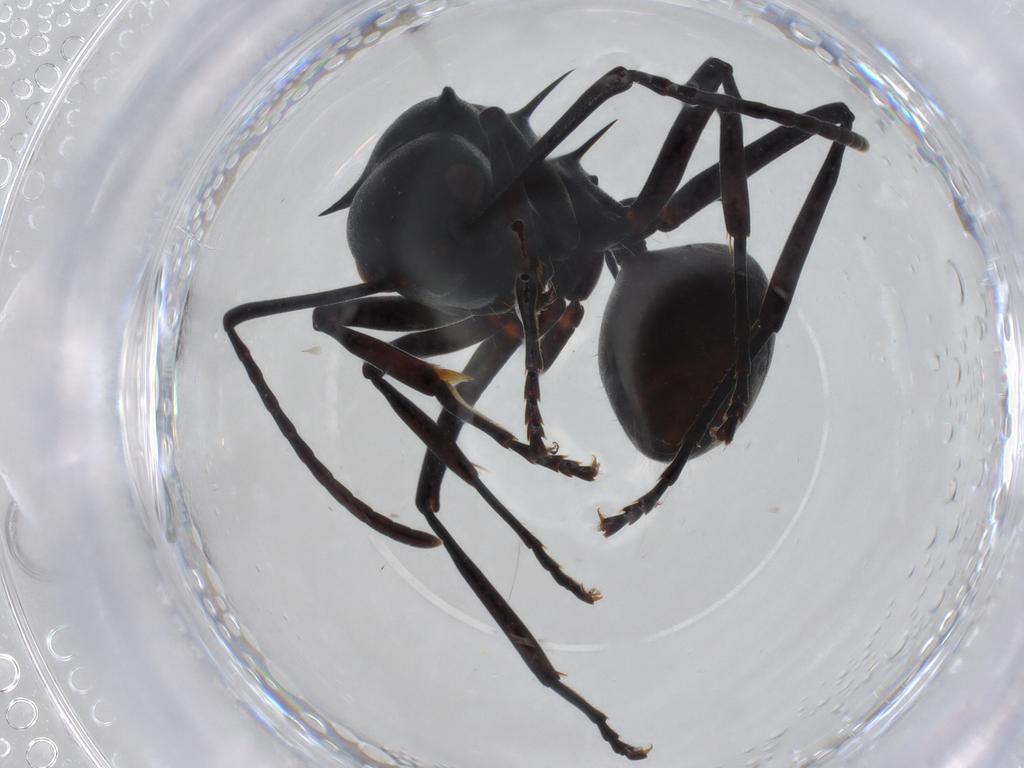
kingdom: Animalia
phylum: Arthropoda
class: Insecta
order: Hymenoptera
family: Formicidae
